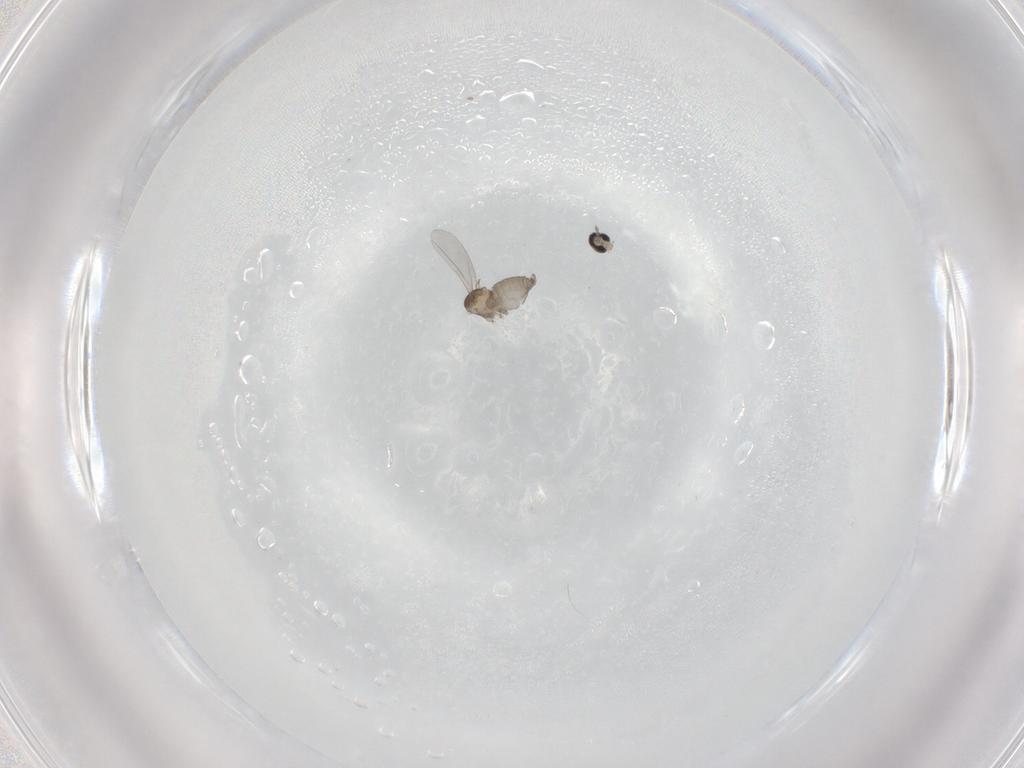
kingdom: Animalia
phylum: Arthropoda
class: Insecta
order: Diptera
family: Cecidomyiidae
